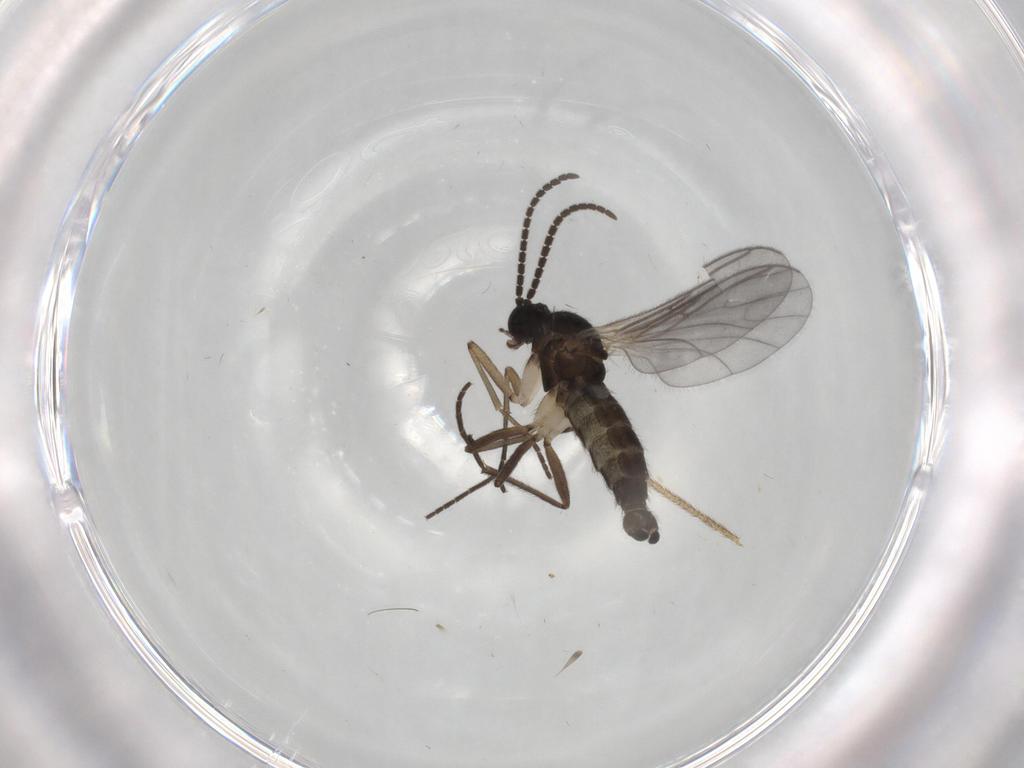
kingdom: Animalia
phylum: Arthropoda
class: Insecta
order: Diptera
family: Sciaridae
